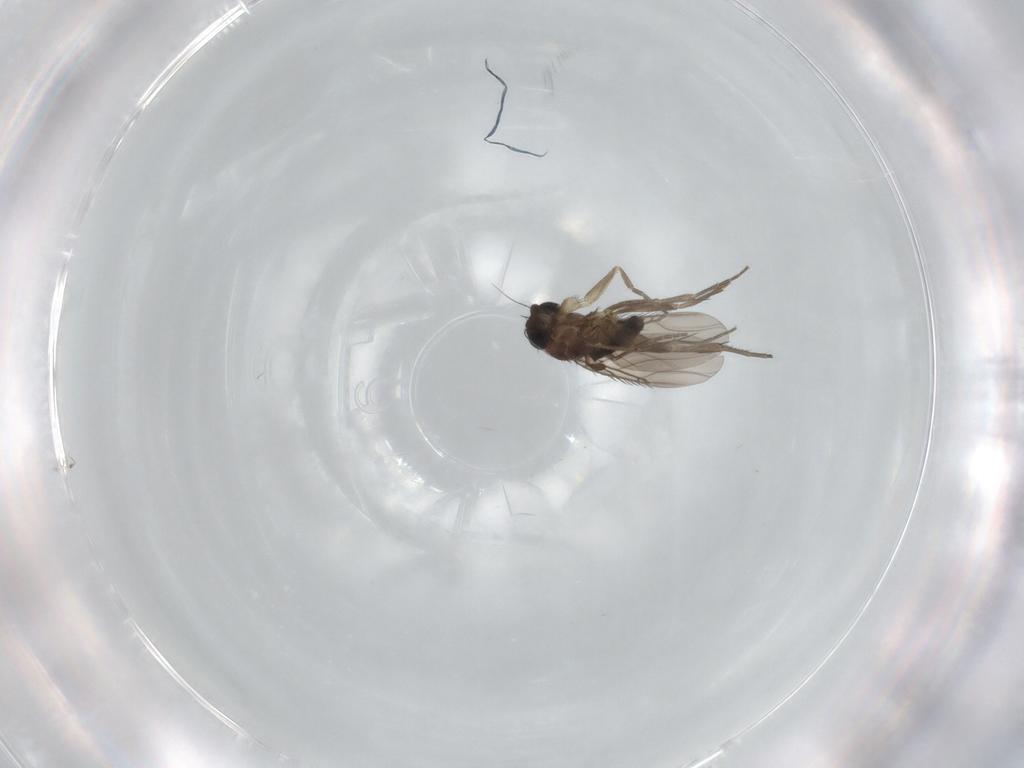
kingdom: Animalia
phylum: Arthropoda
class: Insecta
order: Diptera
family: Phoridae
